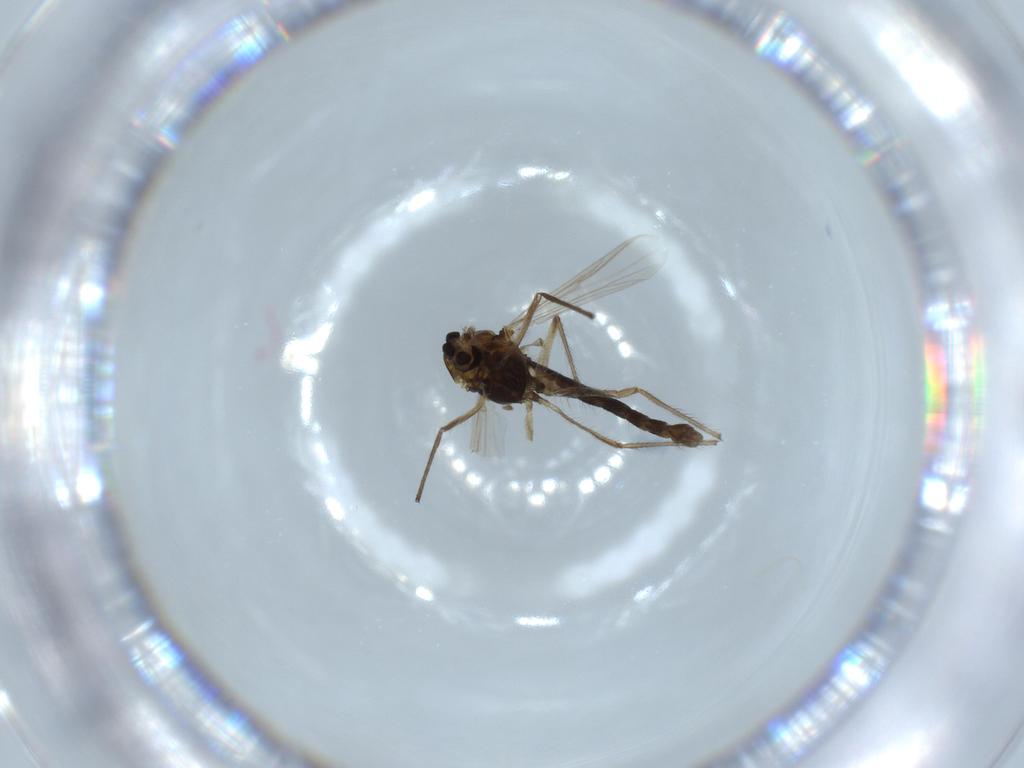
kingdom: Animalia
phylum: Arthropoda
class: Insecta
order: Diptera
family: Chironomidae
